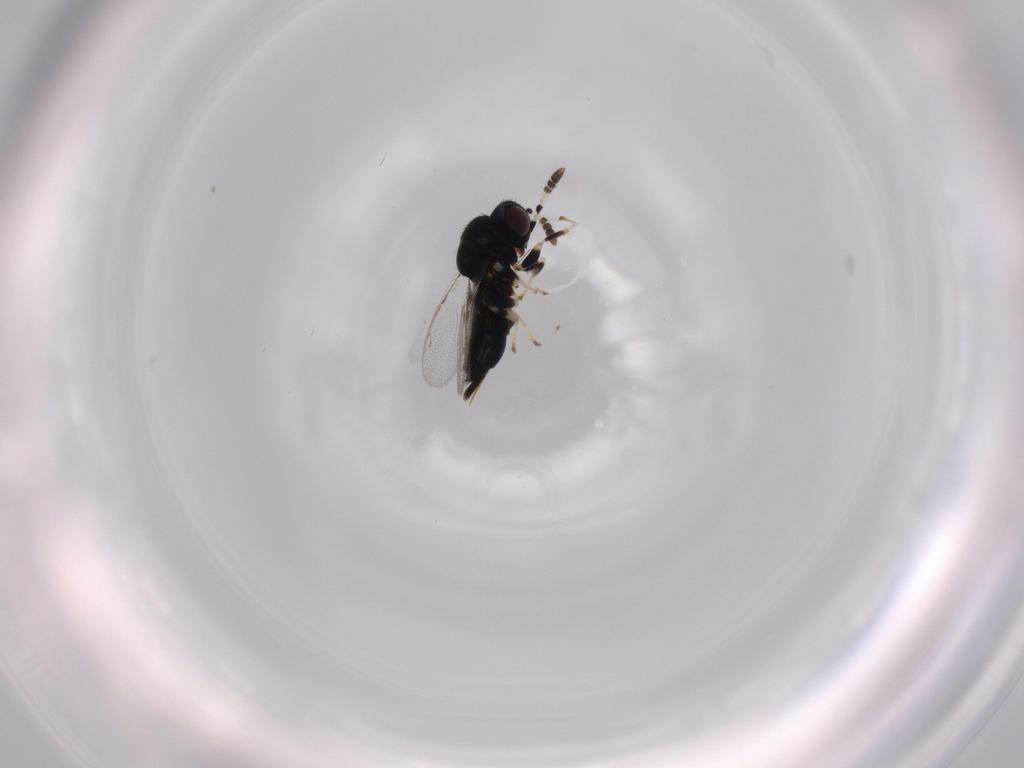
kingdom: Animalia
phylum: Arthropoda
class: Insecta
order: Hymenoptera
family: Pirenidae
